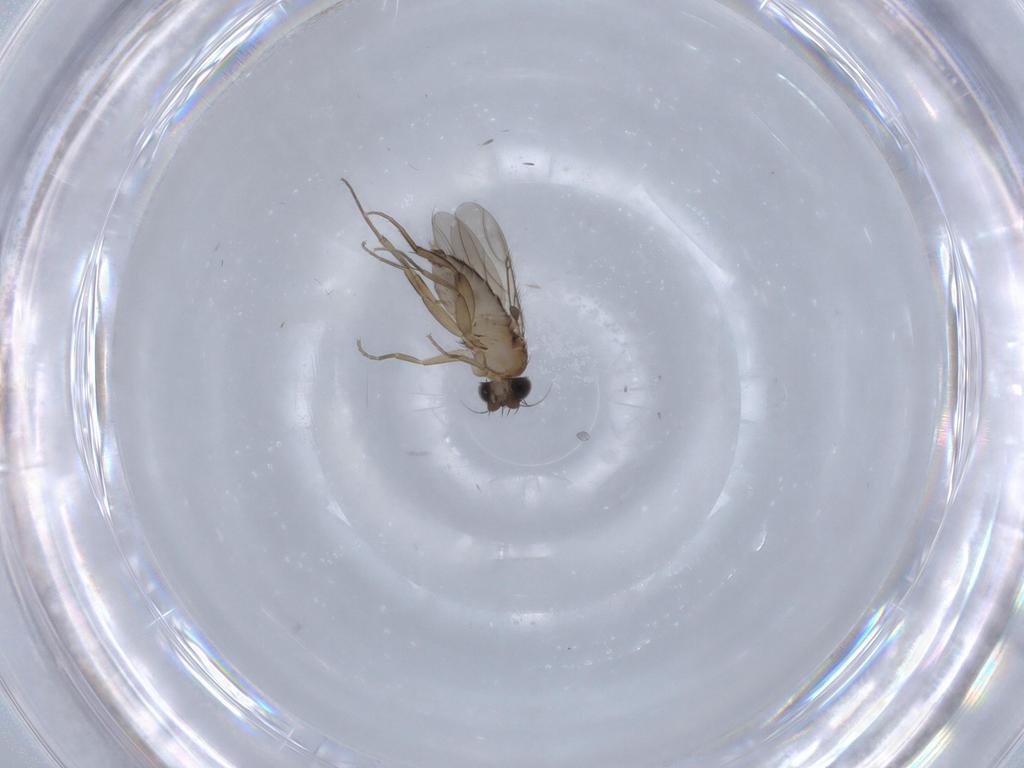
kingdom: Animalia
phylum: Arthropoda
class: Insecta
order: Diptera
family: Phoridae
